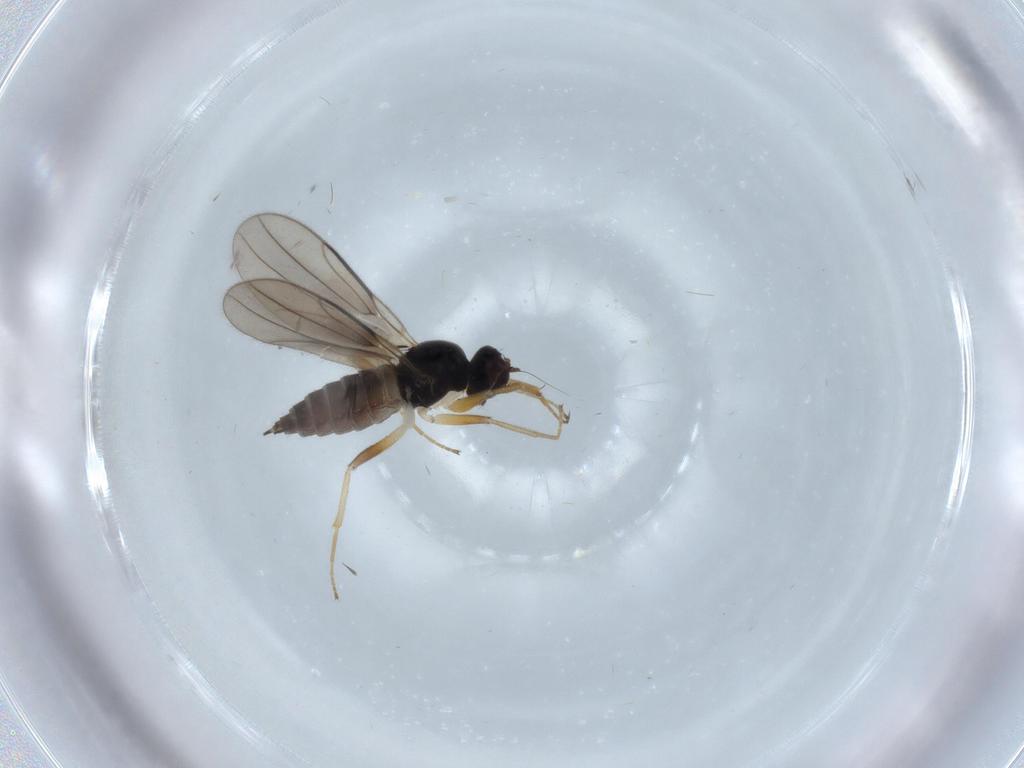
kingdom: Animalia
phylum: Arthropoda
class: Insecta
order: Diptera
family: Hybotidae
